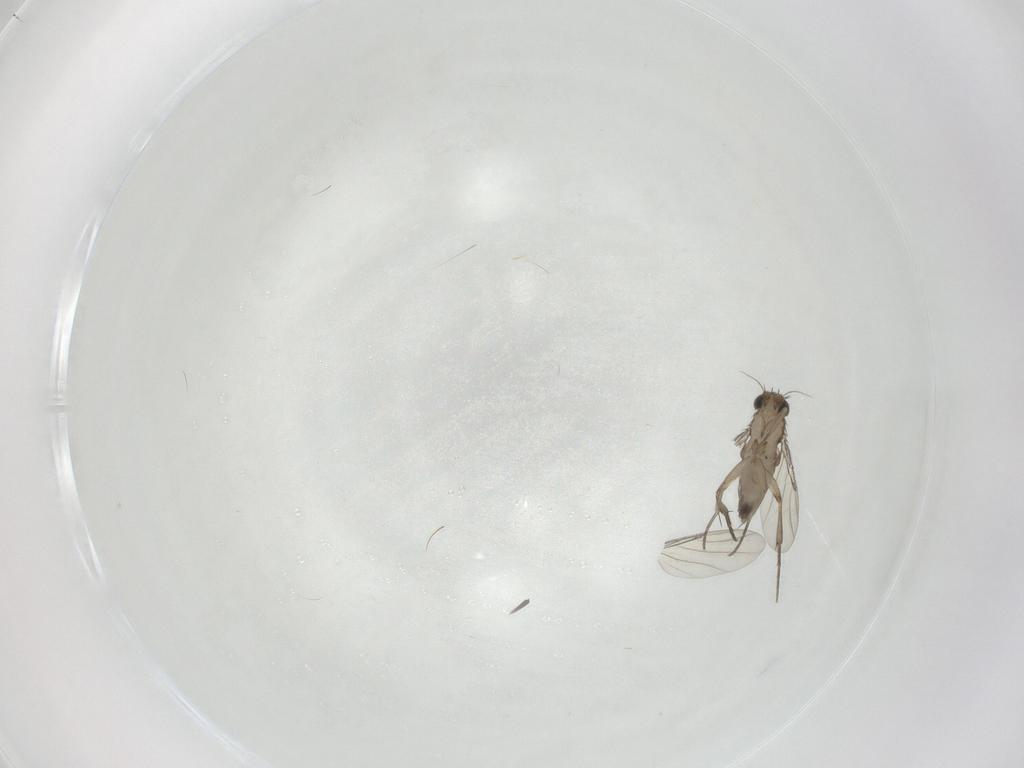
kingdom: Animalia
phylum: Arthropoda
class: Insecta
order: Diptera
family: Phoridae
